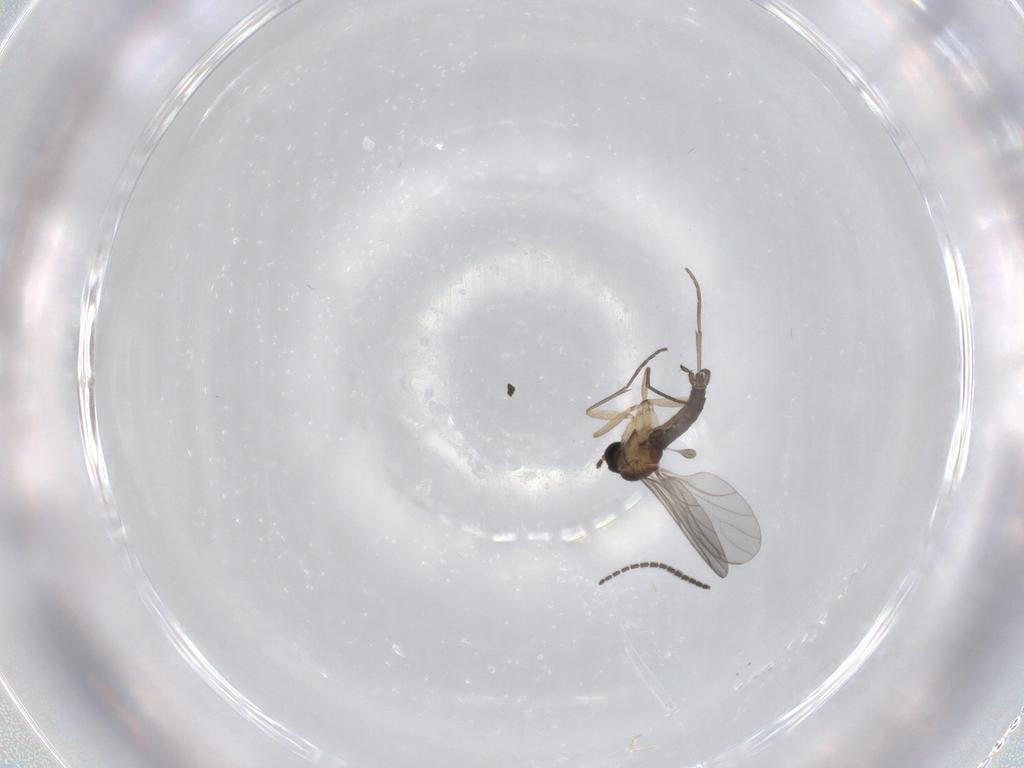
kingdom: Animalia
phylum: Arthropoda
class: Insecta
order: Diptera
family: Sciaridae
